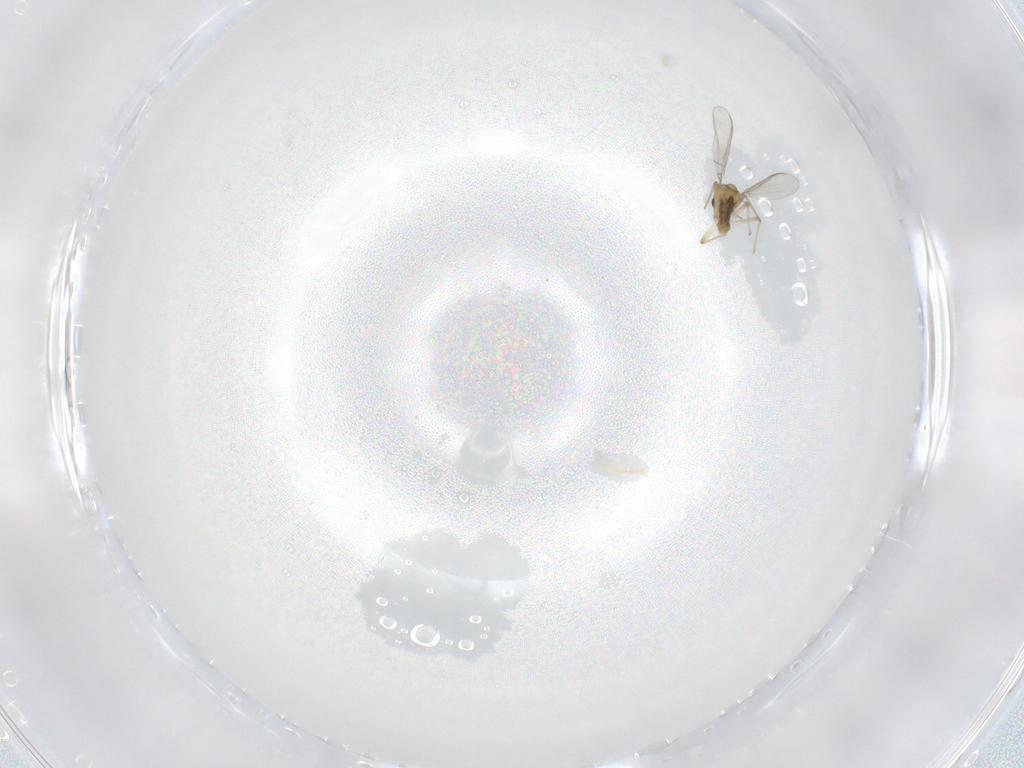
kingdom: Animalia
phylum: Arthropoda
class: Insecta
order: Diptera
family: Chironomidae
